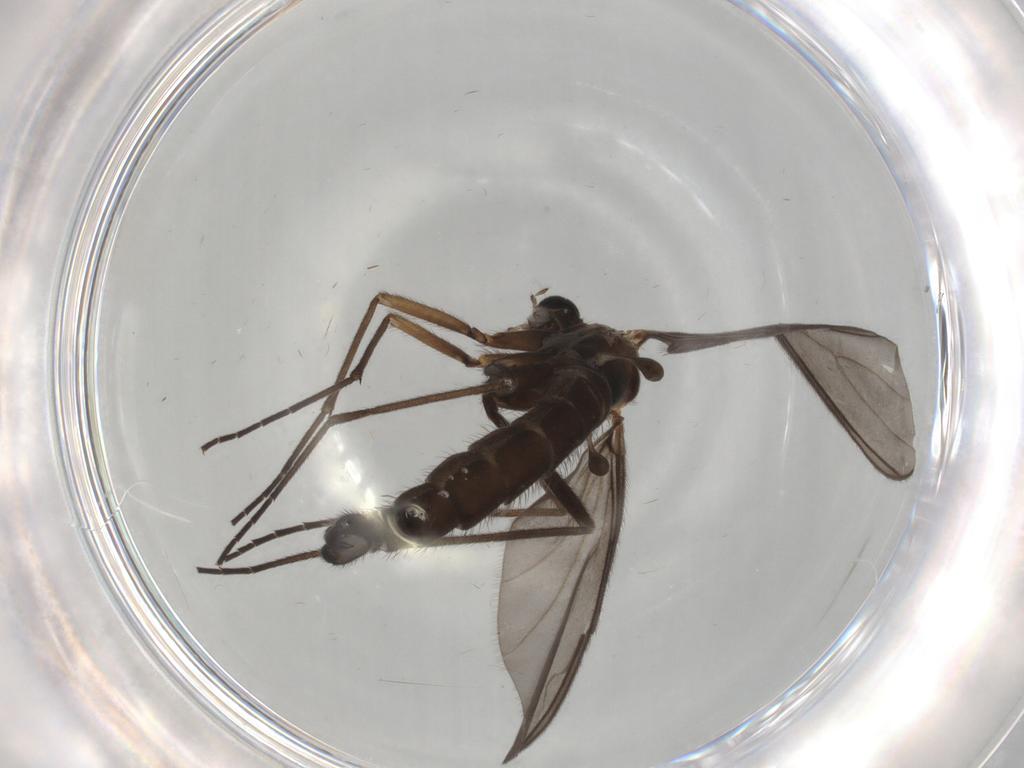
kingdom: Animalia
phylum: Arthropoda
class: Insecta
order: Diptera
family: Sciaridae
